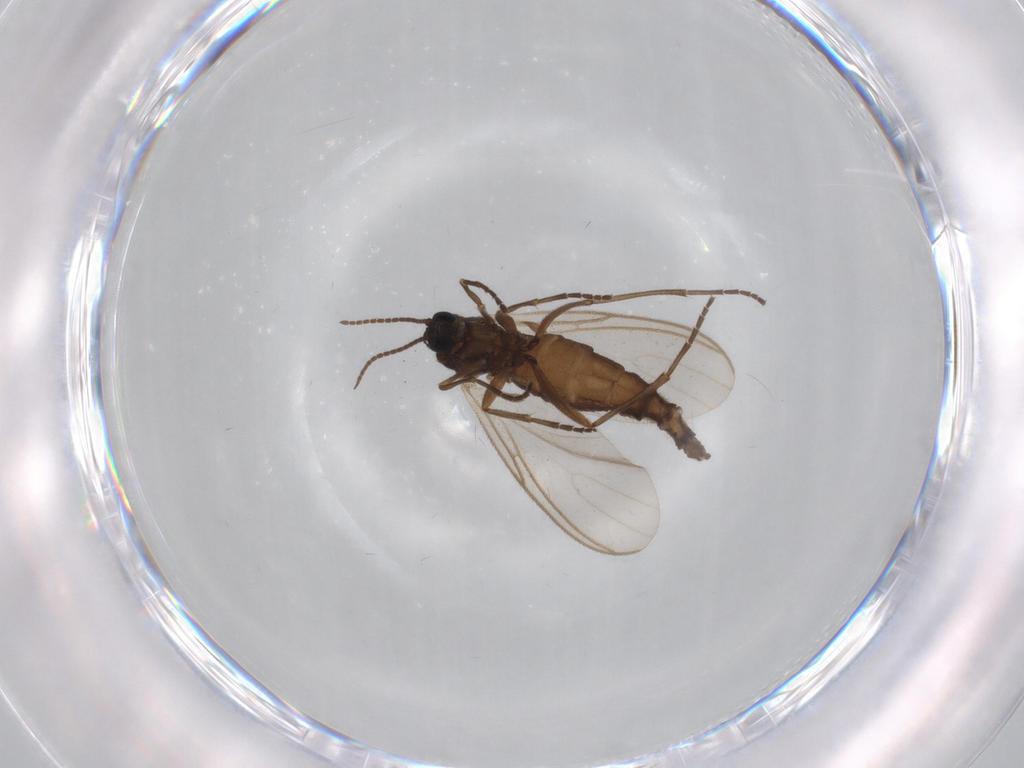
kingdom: Animalia
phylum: Arthropoda
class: Insecta
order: Diptera
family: Sciaridae
